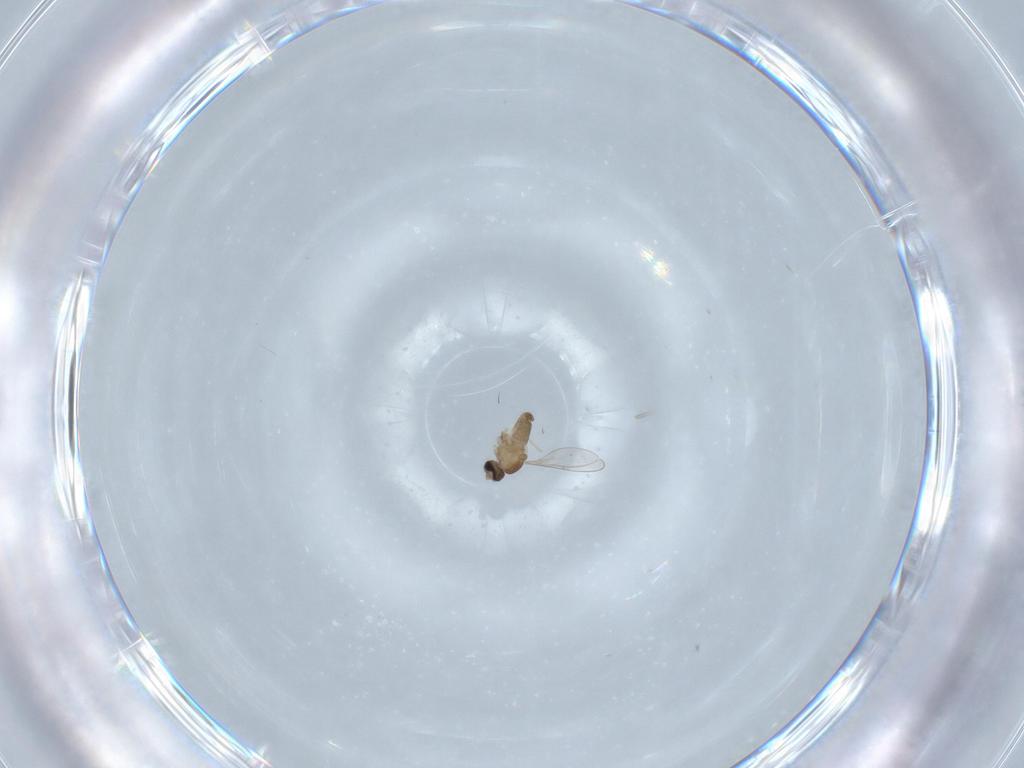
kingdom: Animalia
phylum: Arthropoda
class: Insecta
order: Diptera
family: Cecidomyiidae
